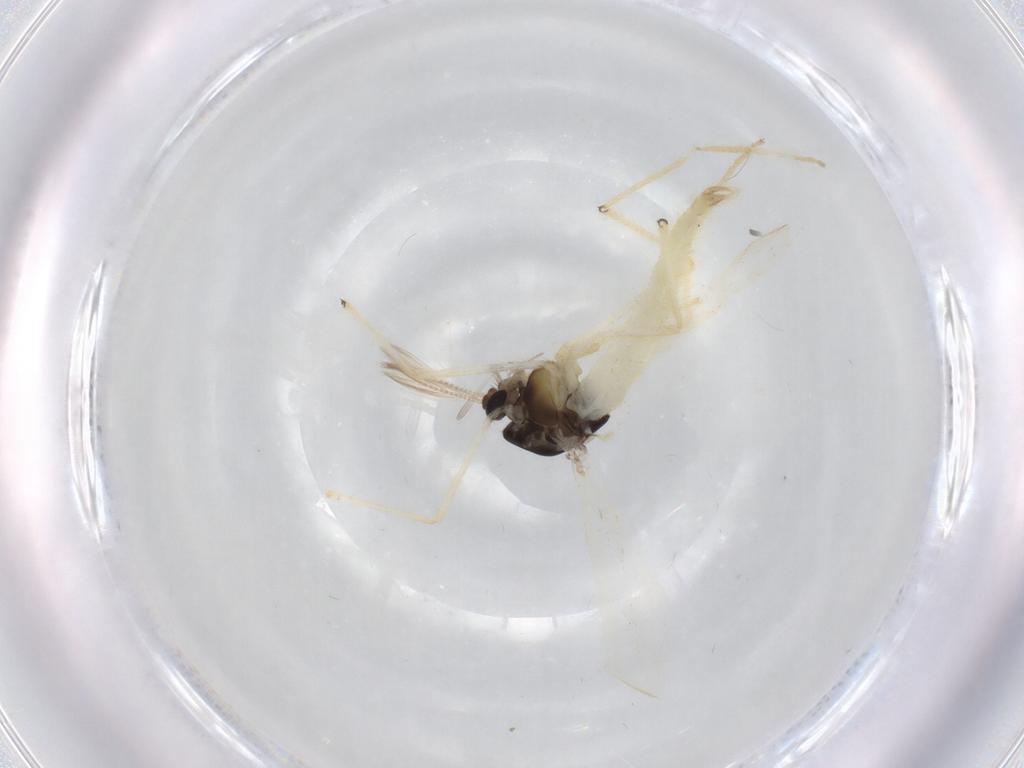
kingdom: Animalia
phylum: Arthropoda
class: Insecta
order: Diptera
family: Chironomidae
